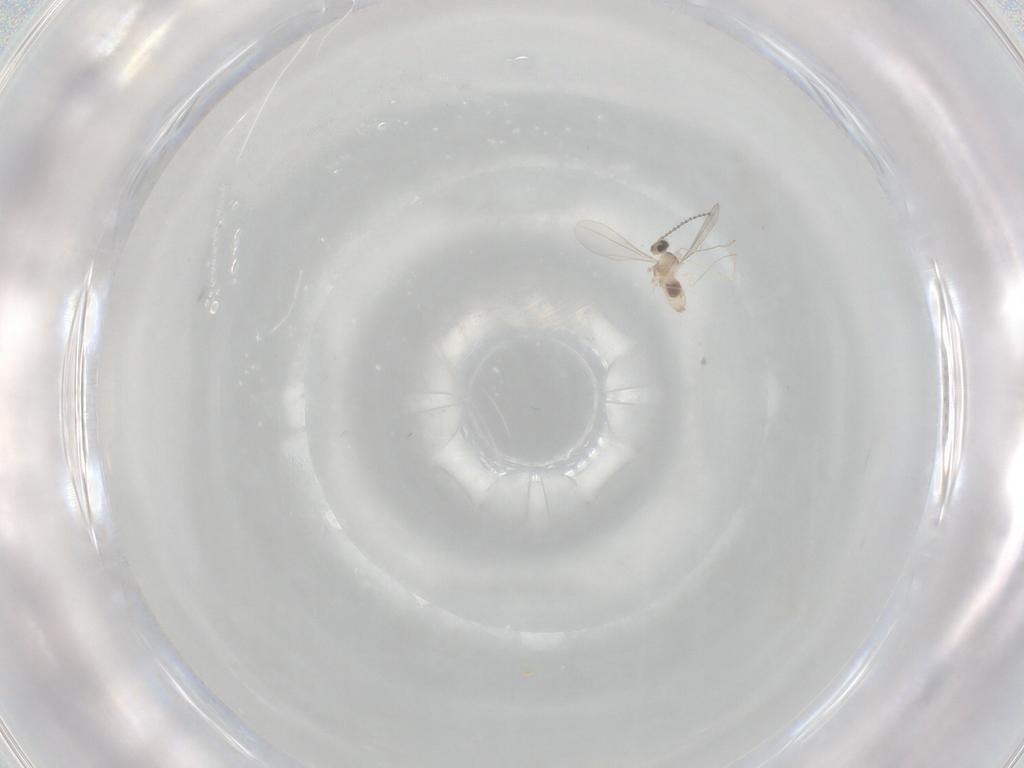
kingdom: Animalia
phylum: Arthropoda
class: Insecta
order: Diptera
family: Cecidomyiidae
